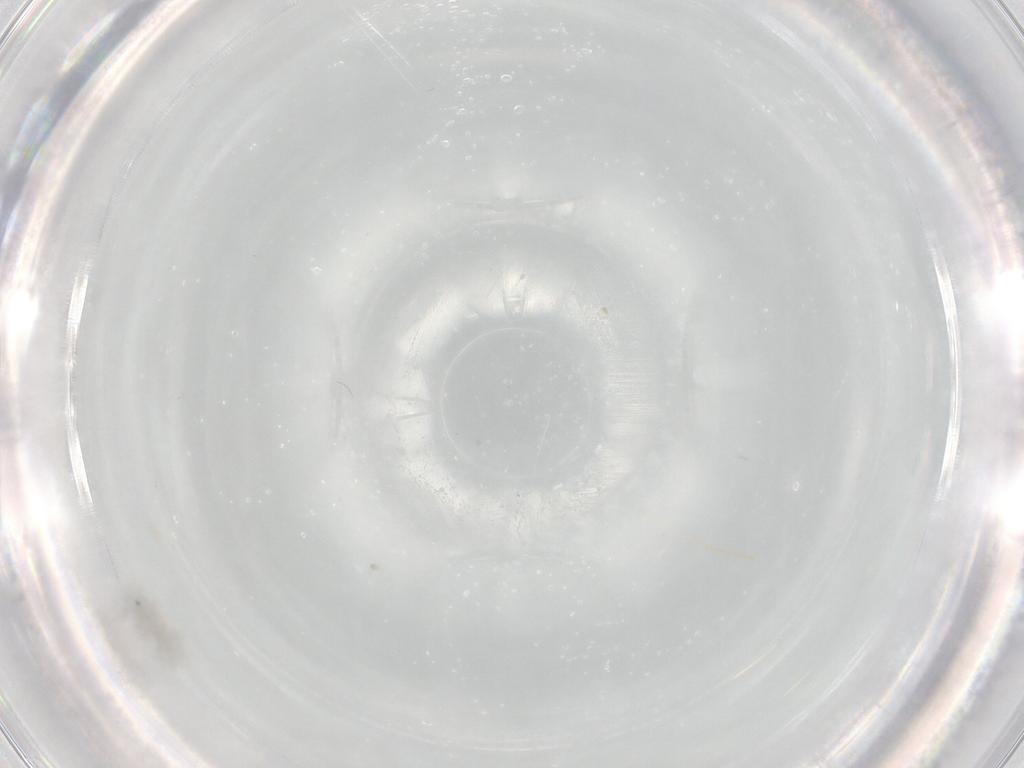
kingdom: Animalia
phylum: Arthropoda
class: Insecta
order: Diptera
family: Cecidomyiidae
